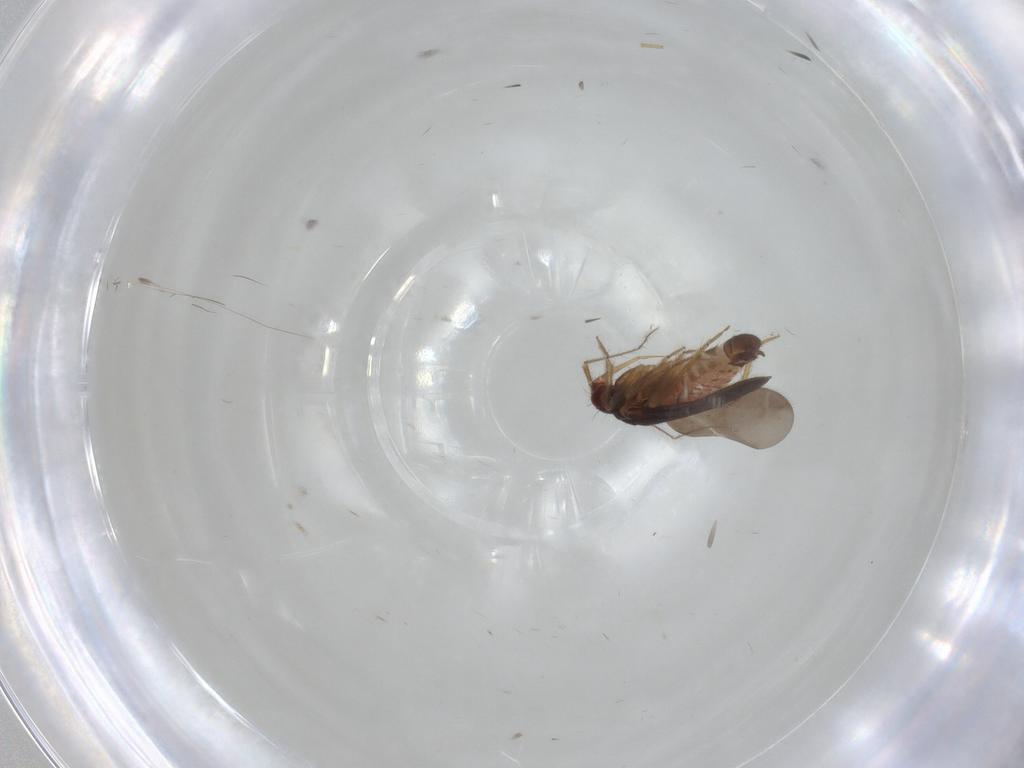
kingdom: Animalia
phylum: Arthropoda
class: Insecta
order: Hemiptera
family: Ceratocombidae
